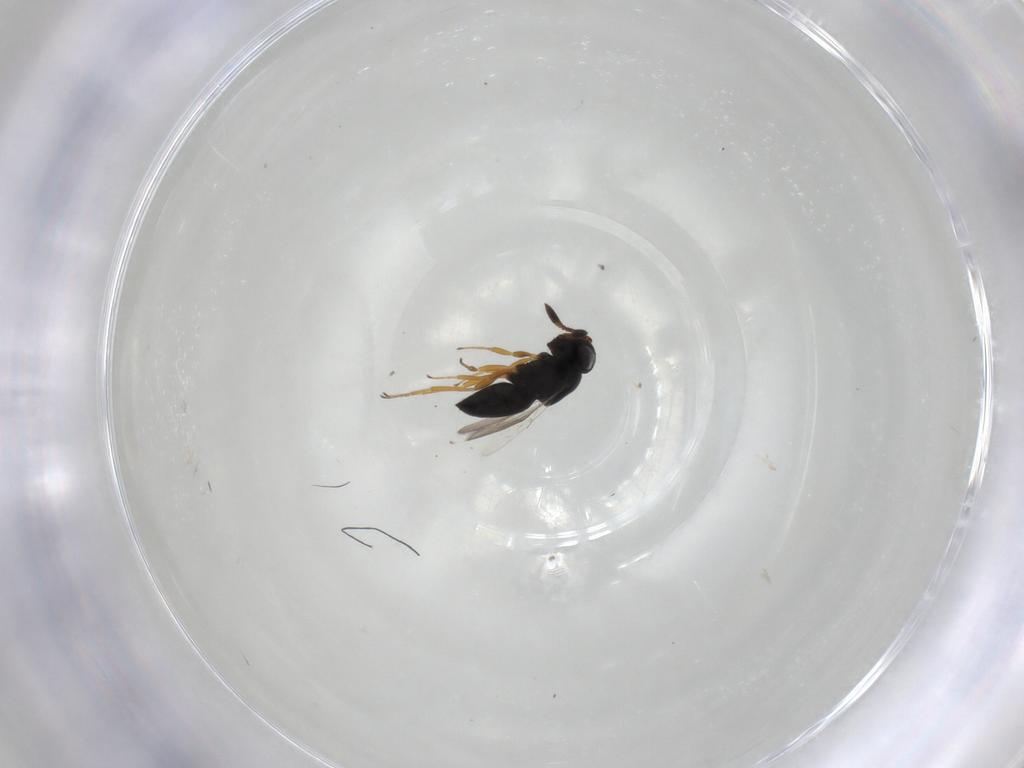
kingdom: Animalia
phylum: Arthropoda
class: Insecta
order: Hymenoptera
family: Scelionidae
